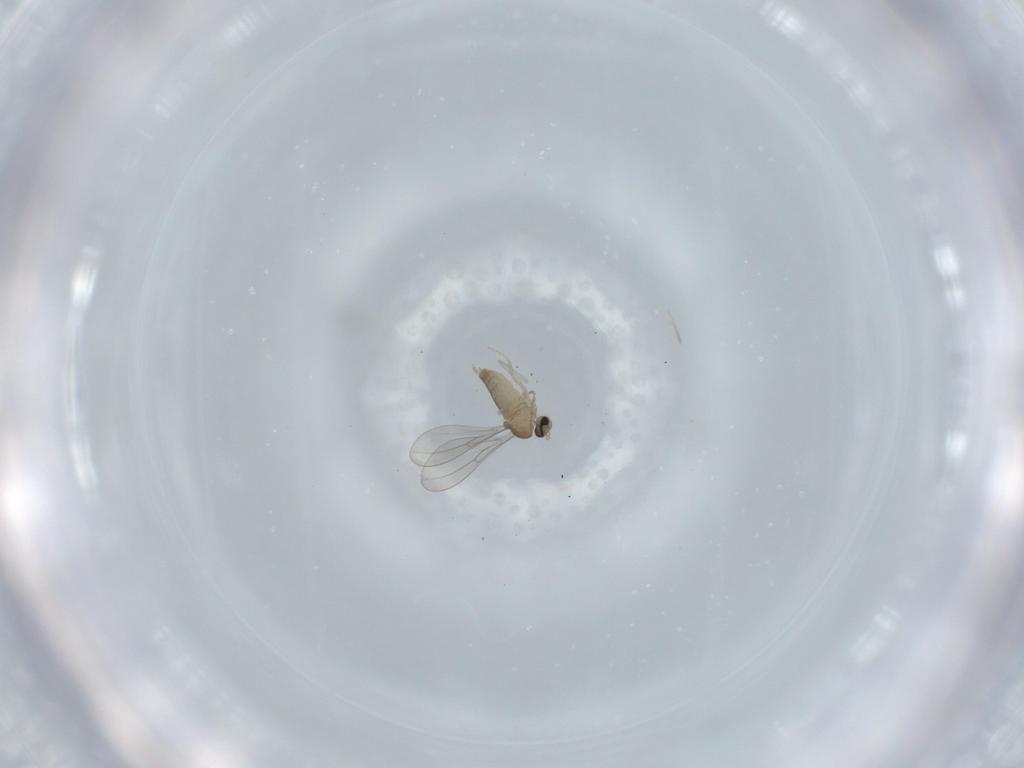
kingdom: Animalia
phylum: Arthropoda
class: Insecta
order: Diptera
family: Cecidomyiidae
